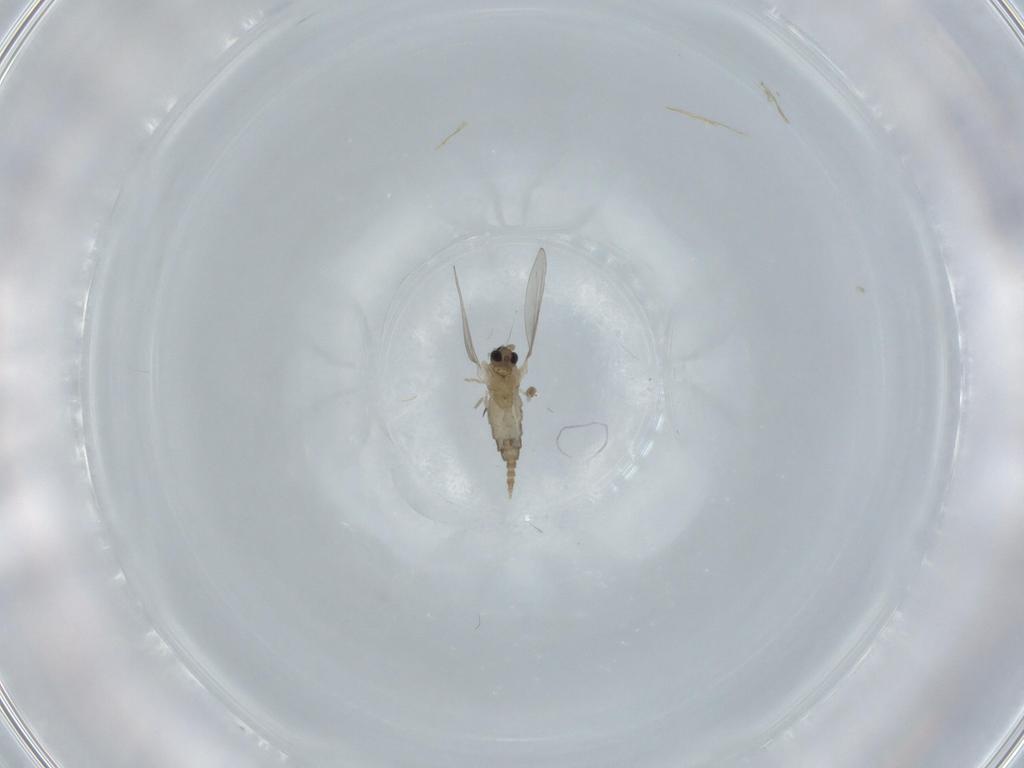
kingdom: Animalia
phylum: Arthropoda
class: Insecta
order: Diptera
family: Cecidomyiidae
